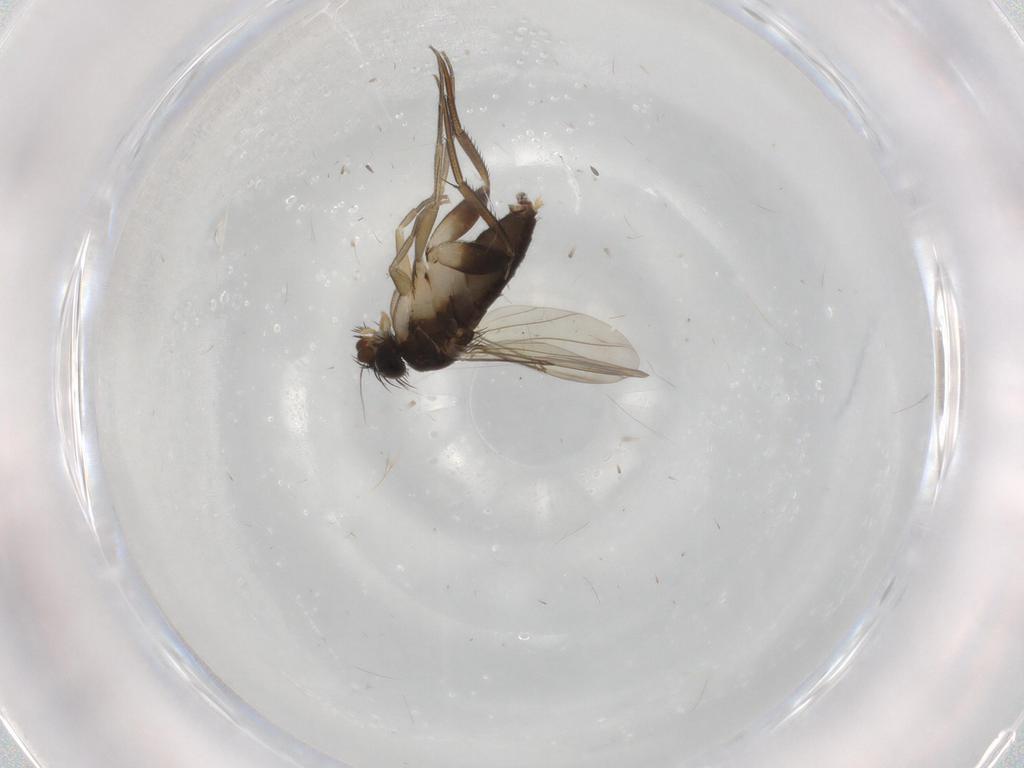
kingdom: Animalia
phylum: Arthropoda
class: Insecta
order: Diptera
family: Phoridae
